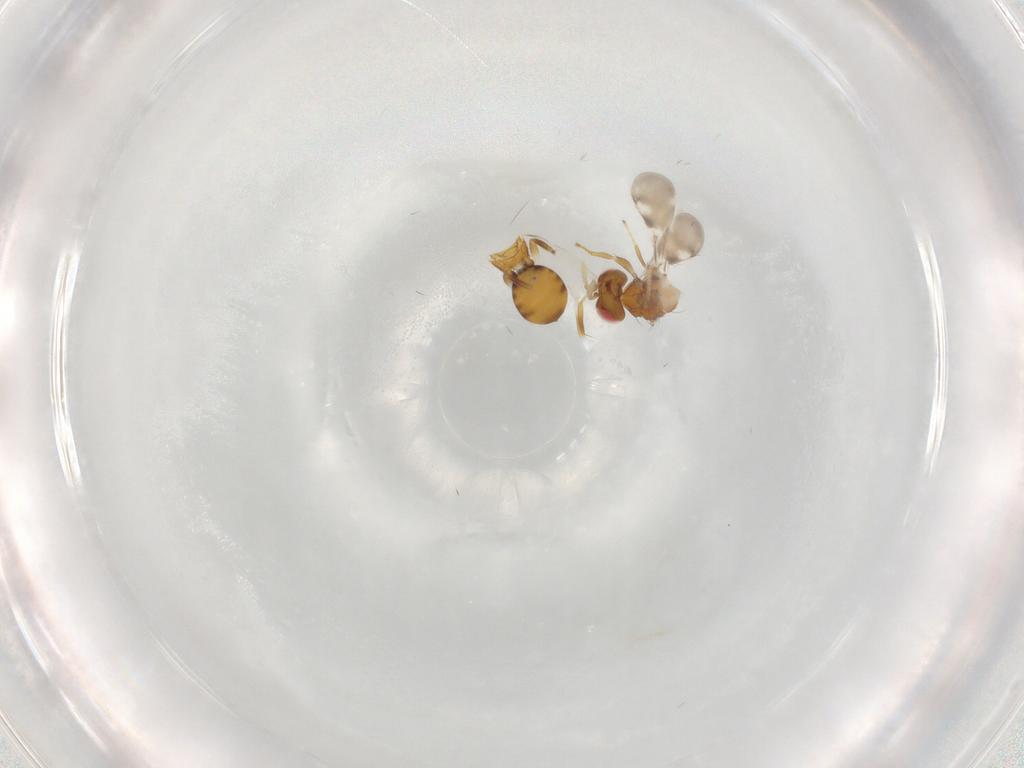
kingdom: Animalia
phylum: Arthropoda
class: Insecta
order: Hymenoptera
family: Eulophidae
